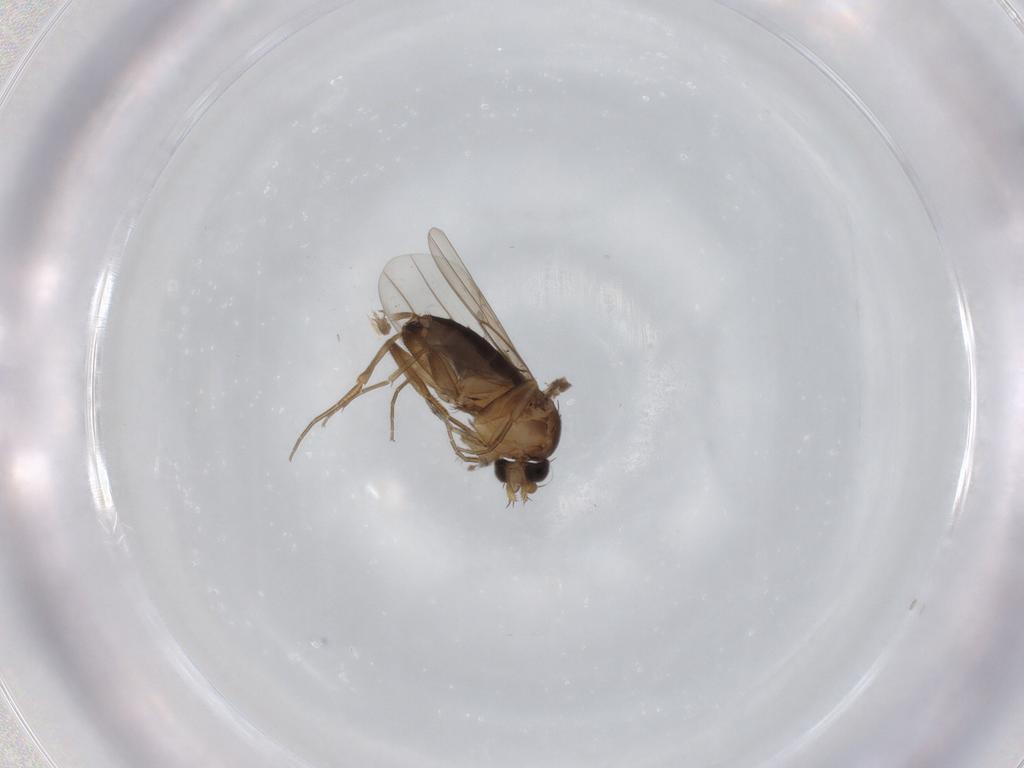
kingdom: Animalia
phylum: Arthropoda
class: Insecta
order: Diptera
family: Phoridae
